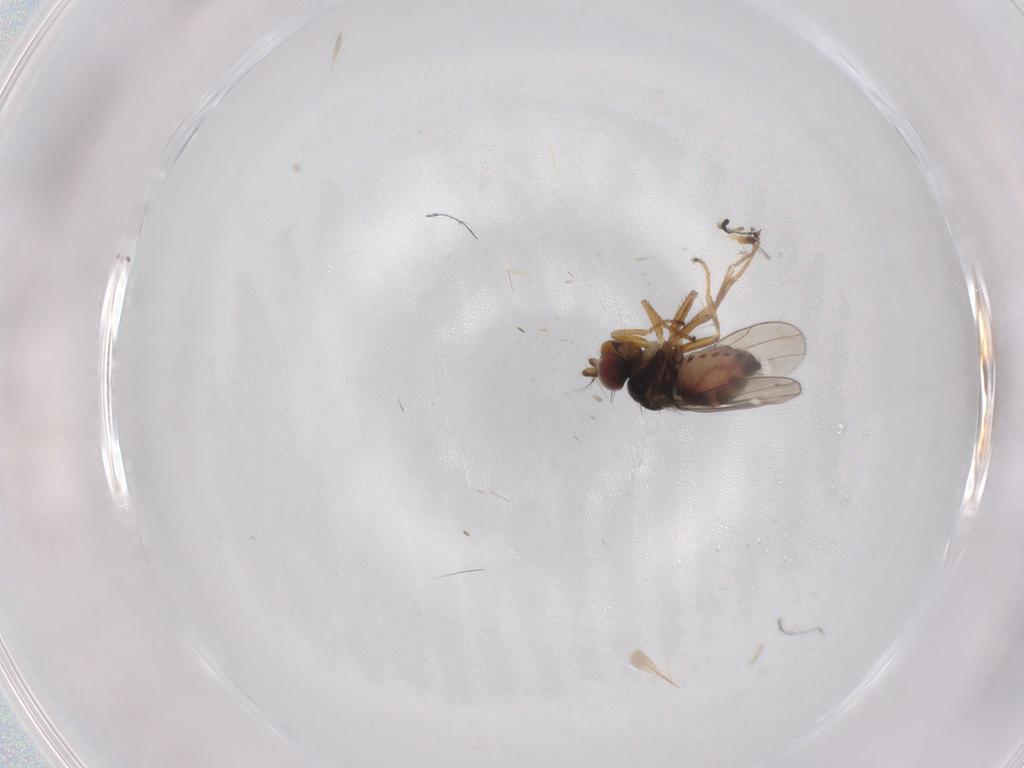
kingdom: Animalia
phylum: Arthropoda
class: Insecta
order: Diptera
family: Ephydridae
